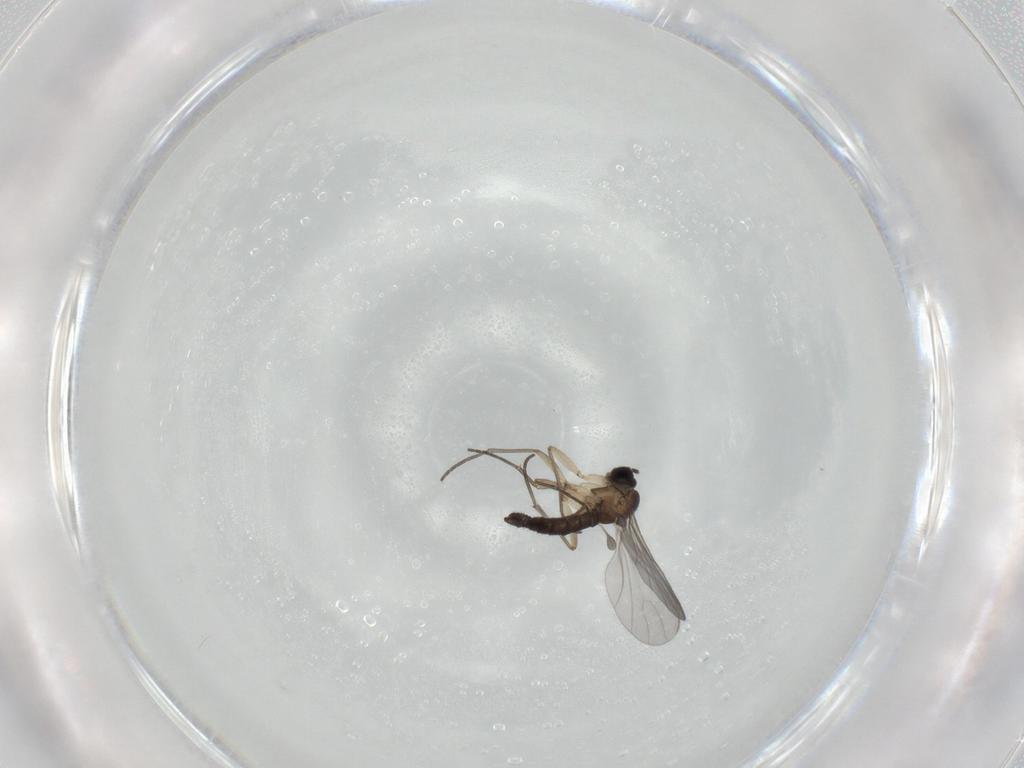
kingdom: Animalia
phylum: Arthropoda
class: Insecta
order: Diptera
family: Sciaridae
